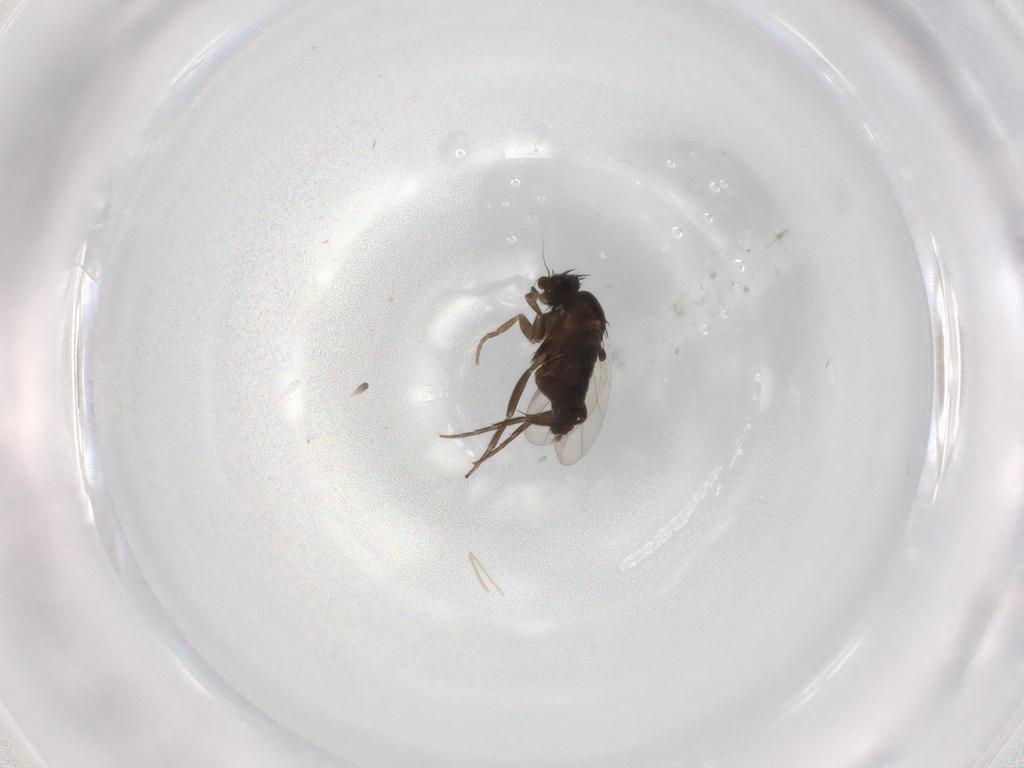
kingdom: Animalia
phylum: Arthropoda
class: Insecta
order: Diptera
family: Phoridae
